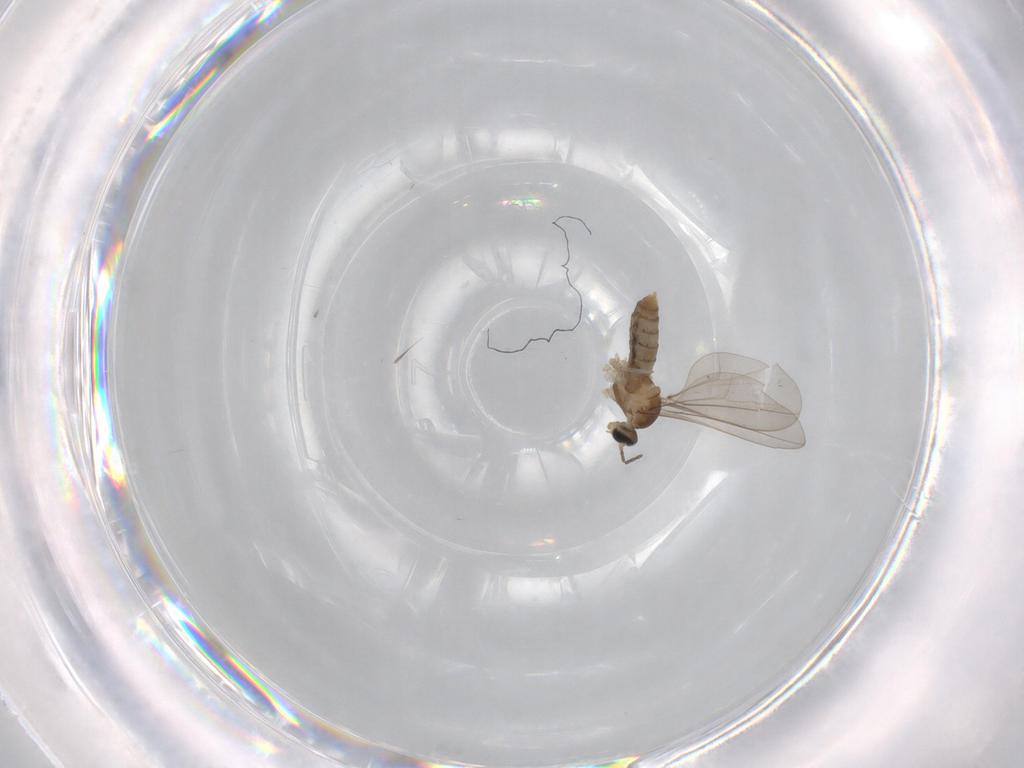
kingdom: Animalia
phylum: Arthropoda
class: Insecta
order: Diptera
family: Cecidomyiidae
